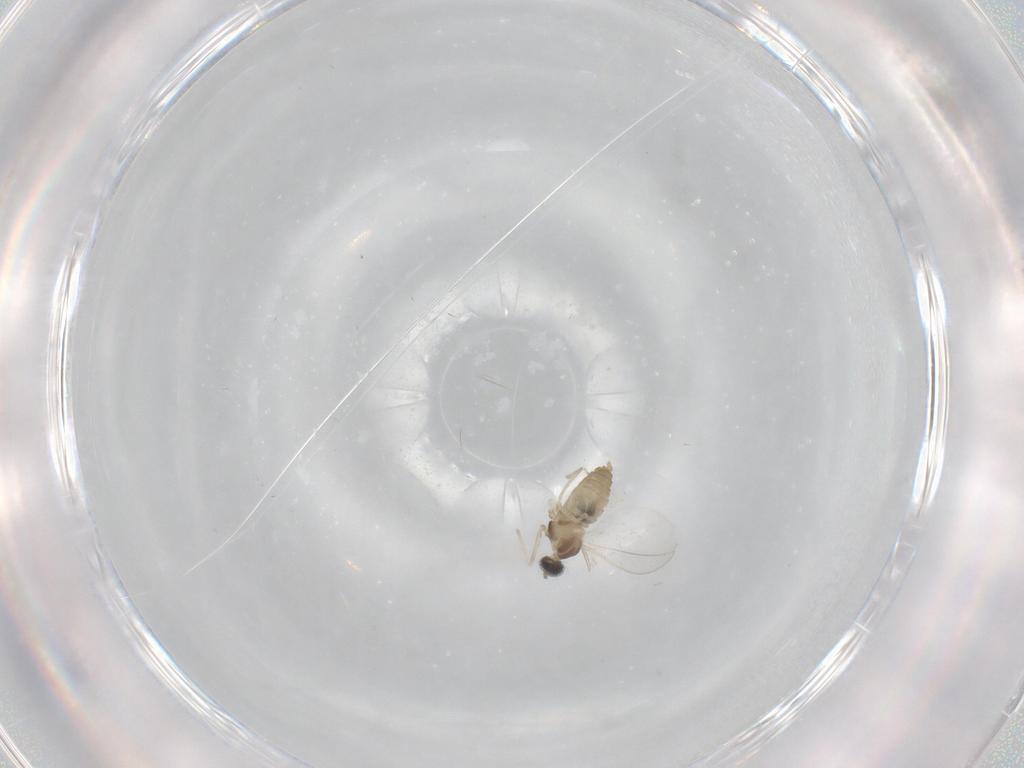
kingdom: Animalia
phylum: Arthropoda
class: Insecta
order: Diptera
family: Cecidomyiidae
